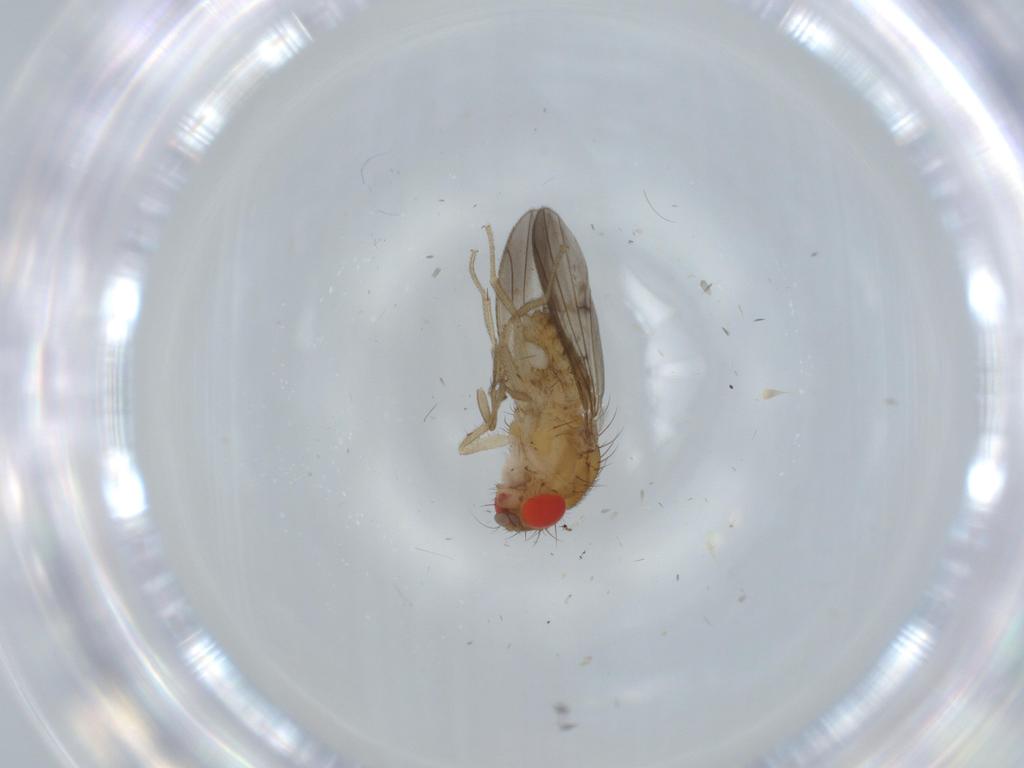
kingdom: Animalia
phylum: Arthropoda
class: Insecta
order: Diptera
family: Drosophilidae
